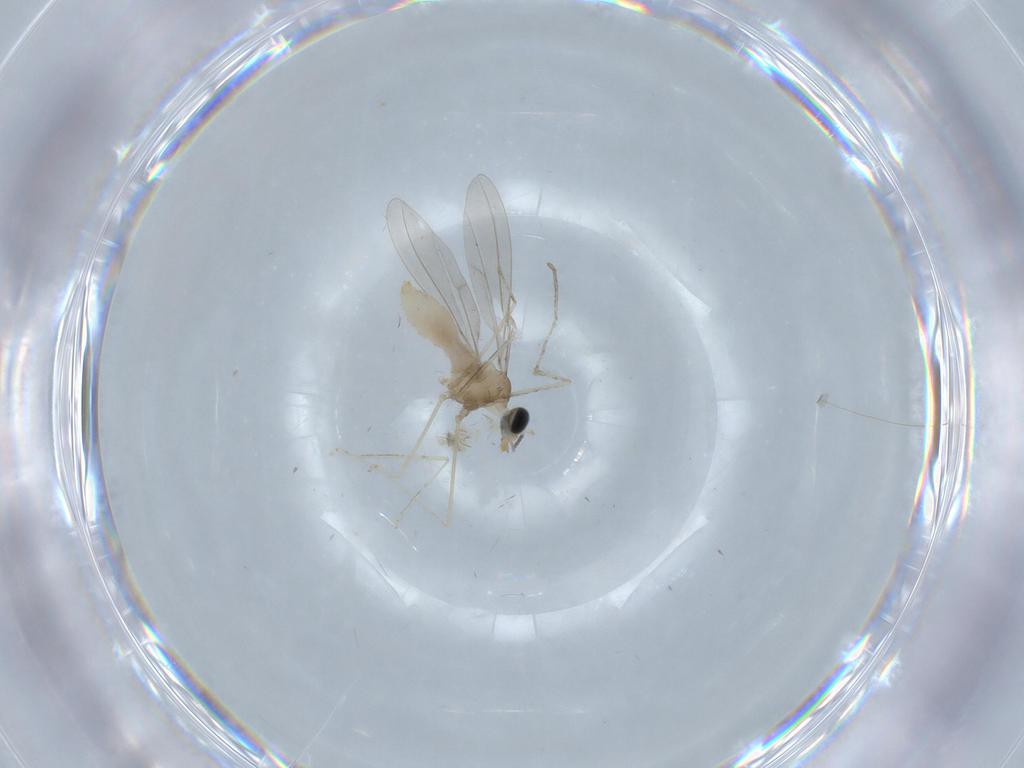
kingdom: Animalia
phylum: Arthropoda
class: Insecta
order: Diptera
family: Cecidomyiidae
